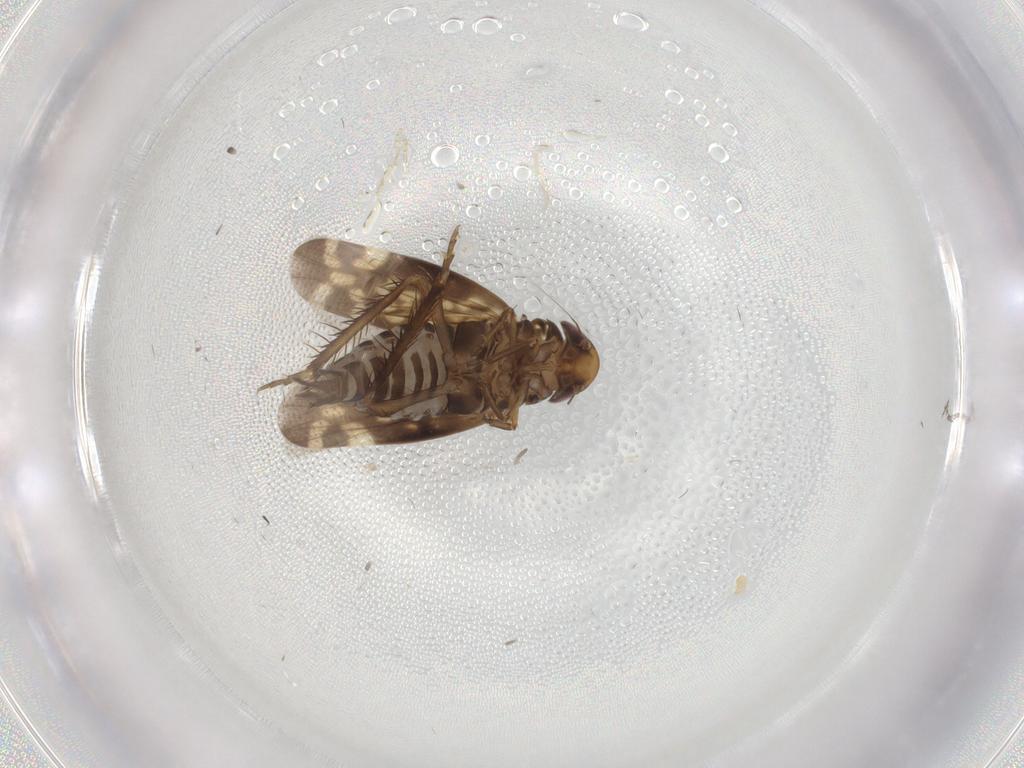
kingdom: Animalia
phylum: Arthropoda
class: Insecta
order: Hemiptera
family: Cicadellidae
